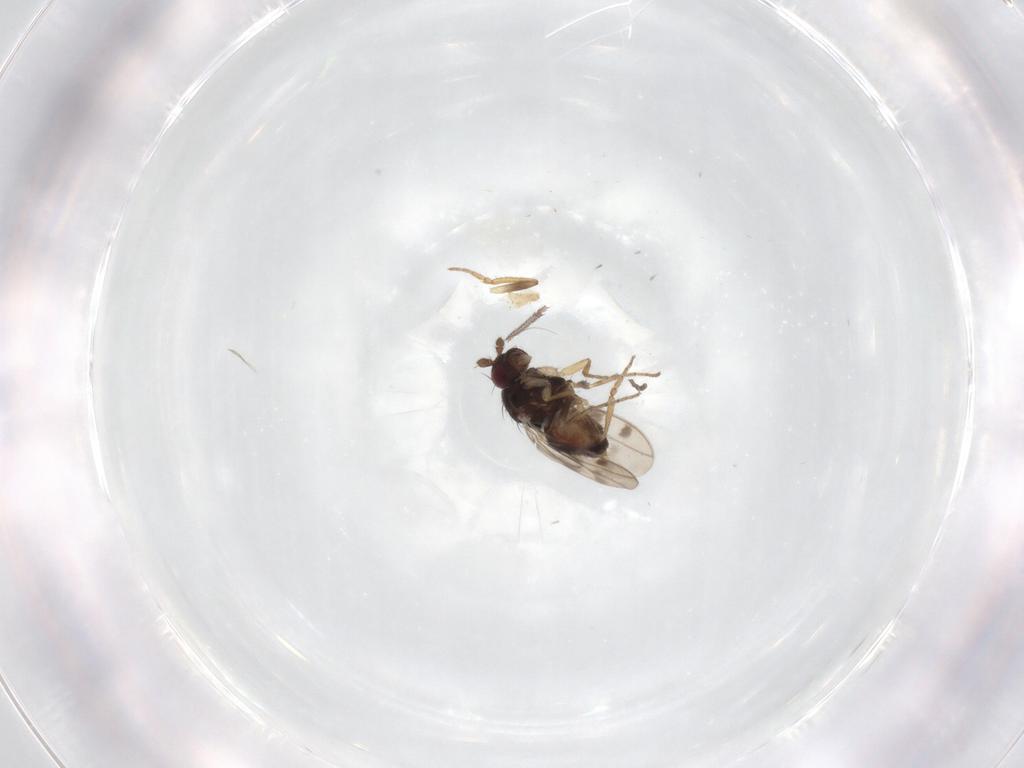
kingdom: Animalia
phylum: Arthropoda
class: Insecta
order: Diptera
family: Sphaeroceridae
